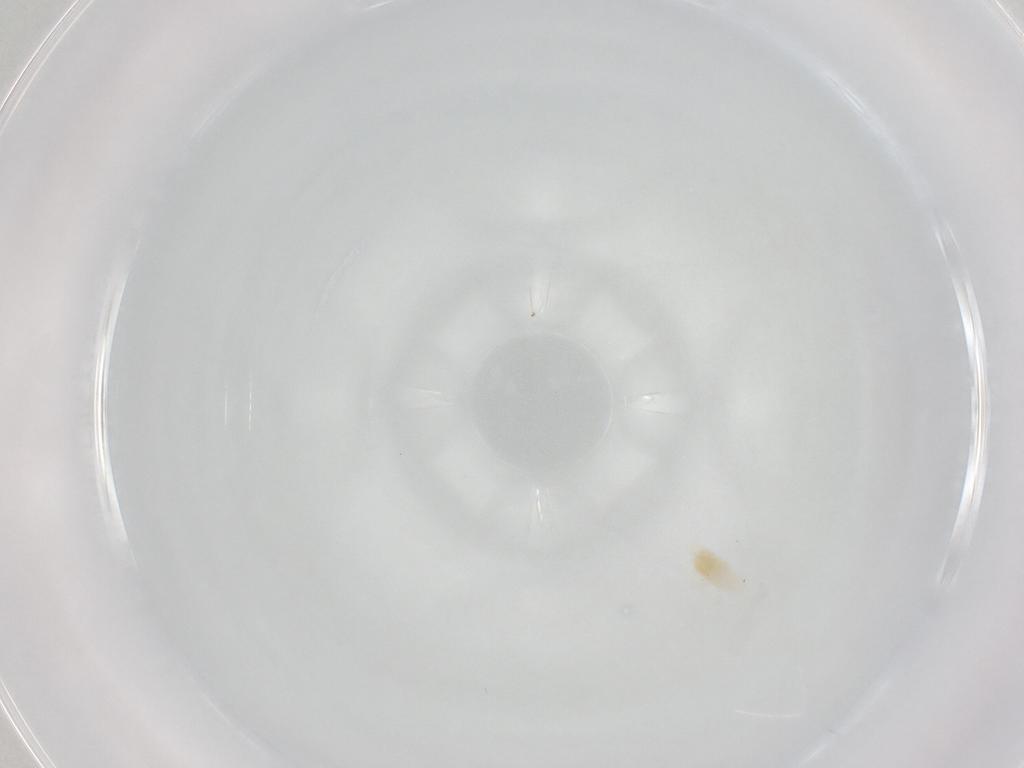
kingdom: Animalia
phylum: Arthropoda
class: Arachnida
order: Trombidiformes
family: Rhagidiidae
